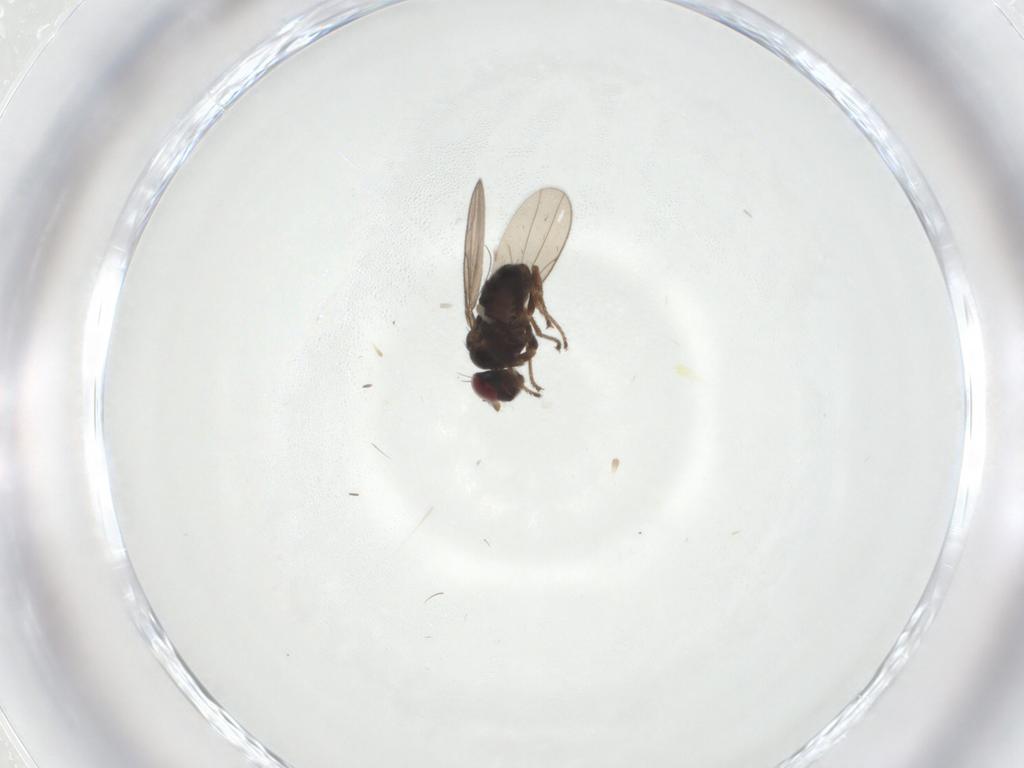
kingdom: Animalia
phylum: Arthropoda
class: Insecta
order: Diptera
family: Ephydridae
